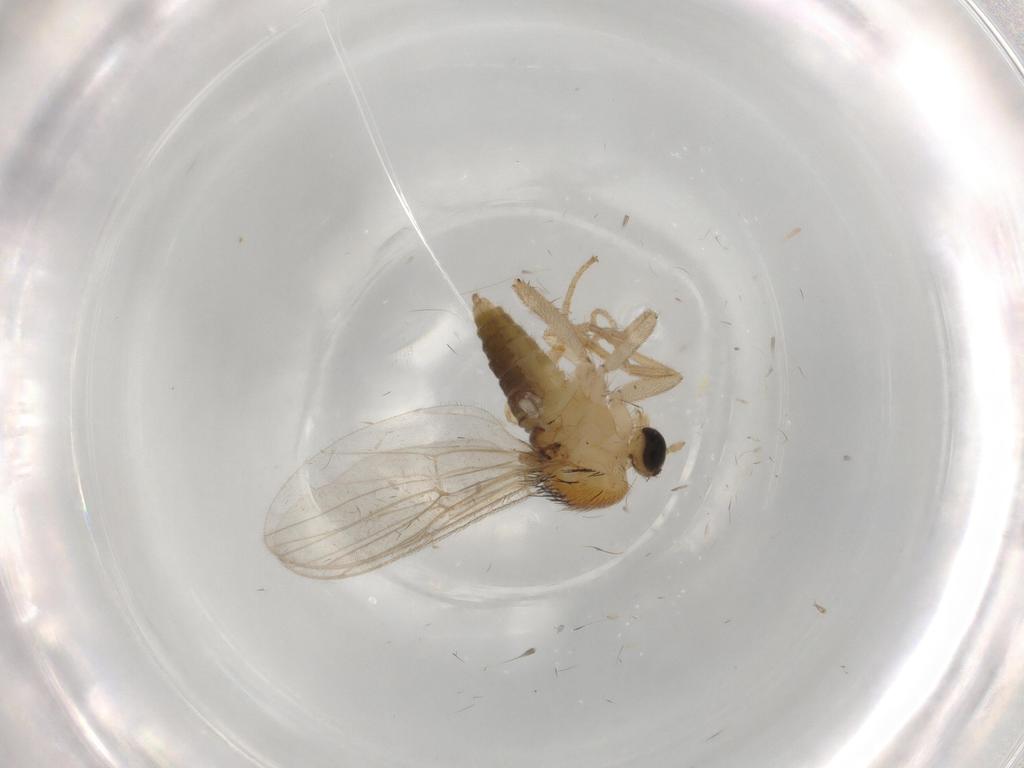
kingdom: Animalia
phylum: Arthropoda
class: Insecta
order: Diptera
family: Hybotidae
